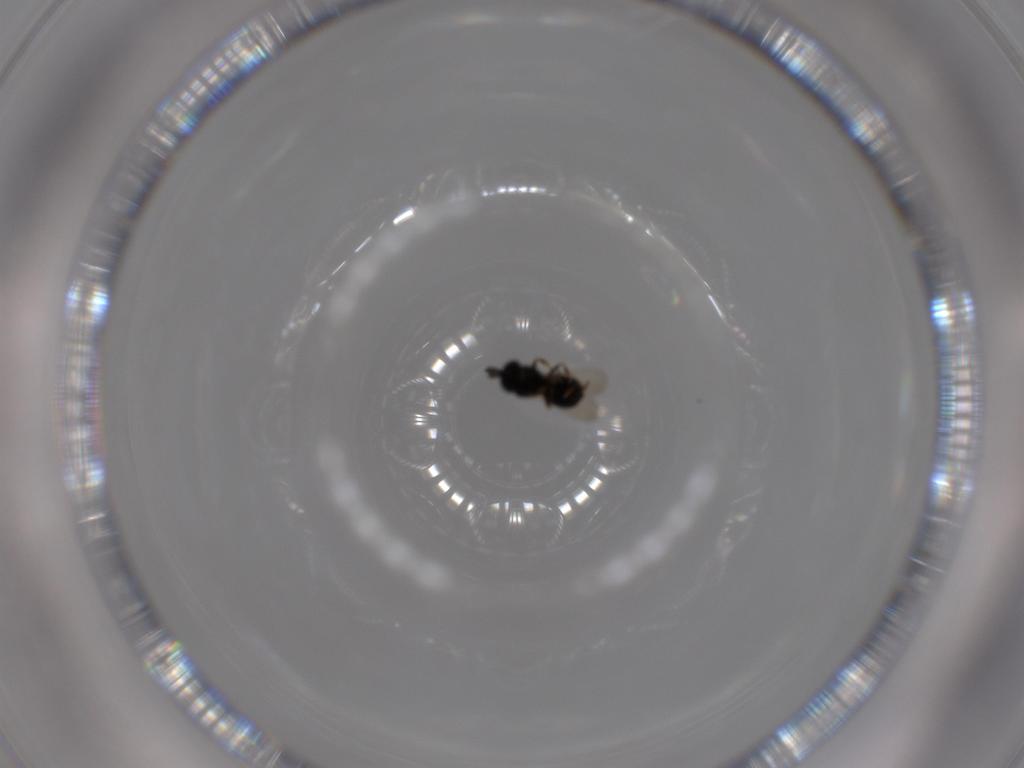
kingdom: Animalia
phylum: Arthropoda
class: Insecta
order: Hymenoptera
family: Scelionidae
